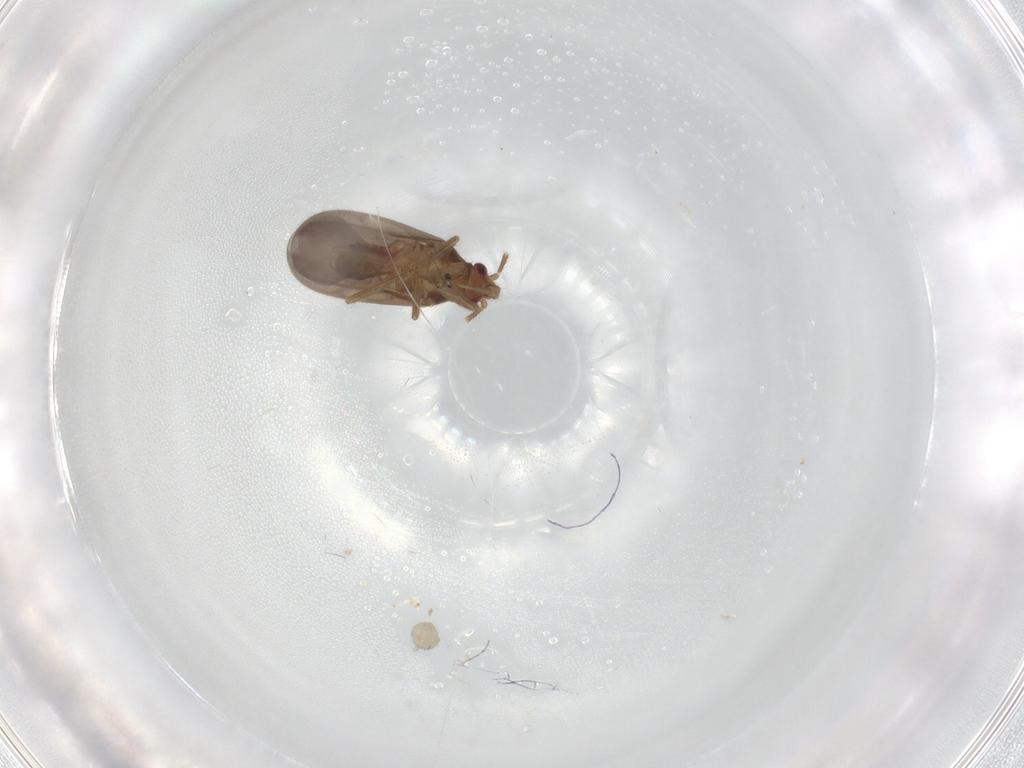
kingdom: Animalia
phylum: Arthropoda
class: Insecta
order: Hemiptera
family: Ceratocombidae
